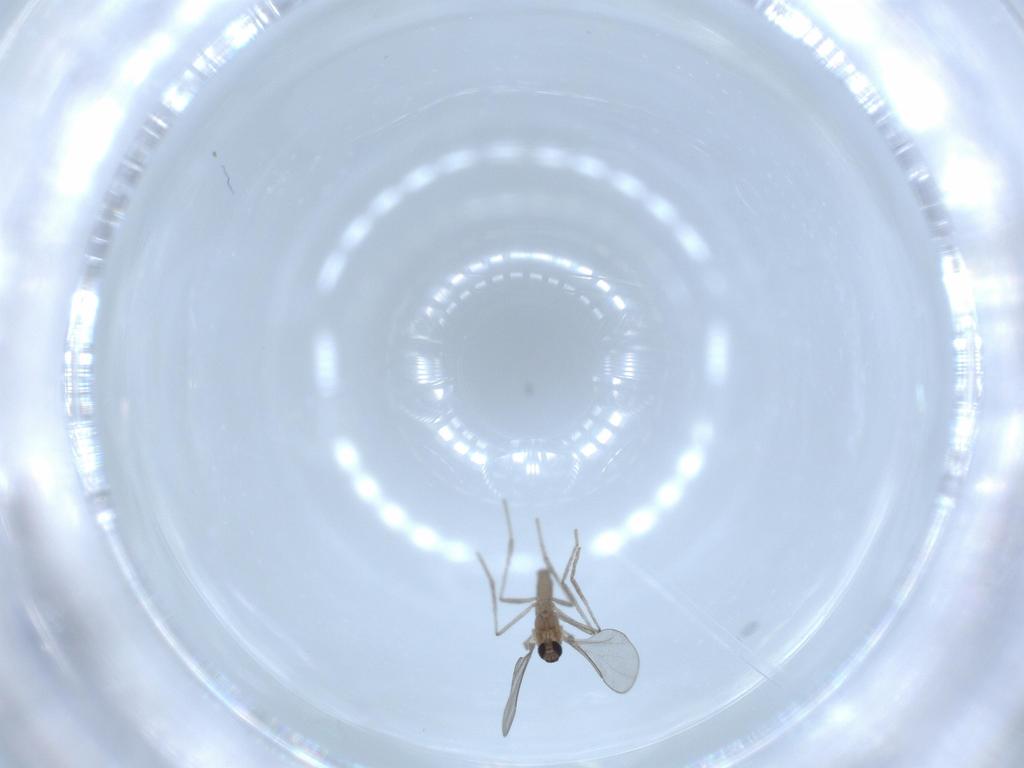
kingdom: Animalia
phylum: Arthropoda
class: Insecta
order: Diptera
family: Cecidomyiidae
